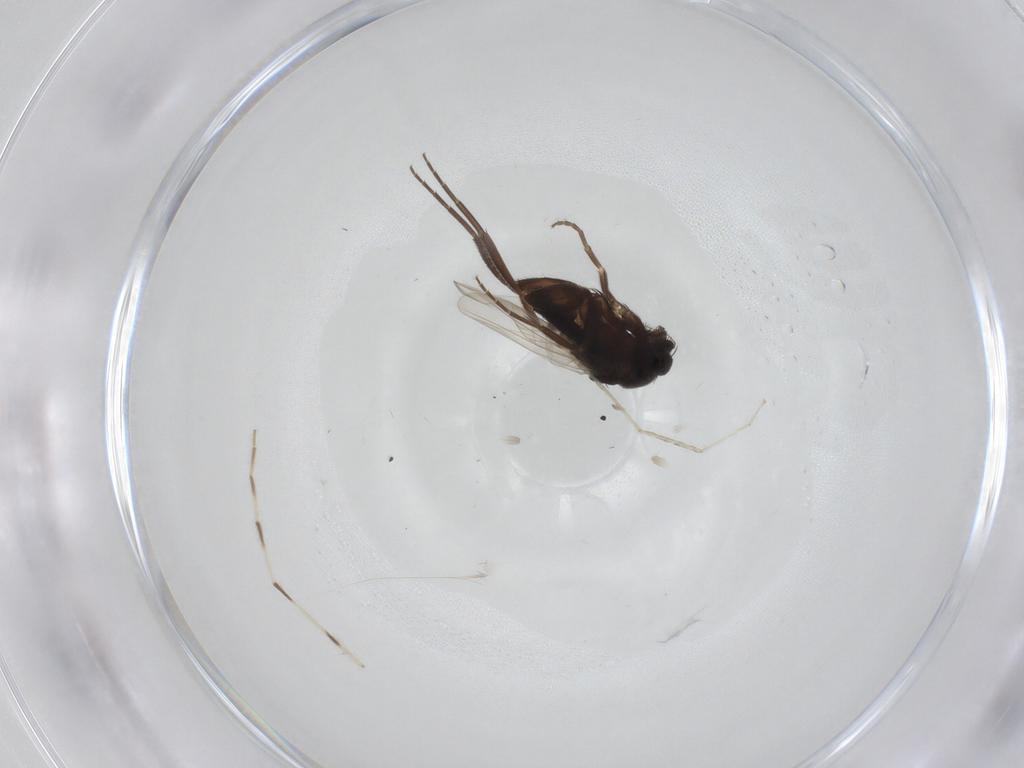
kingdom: Animalia
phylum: Arthropoda
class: Insecta
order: Diptera
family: Phoridae
